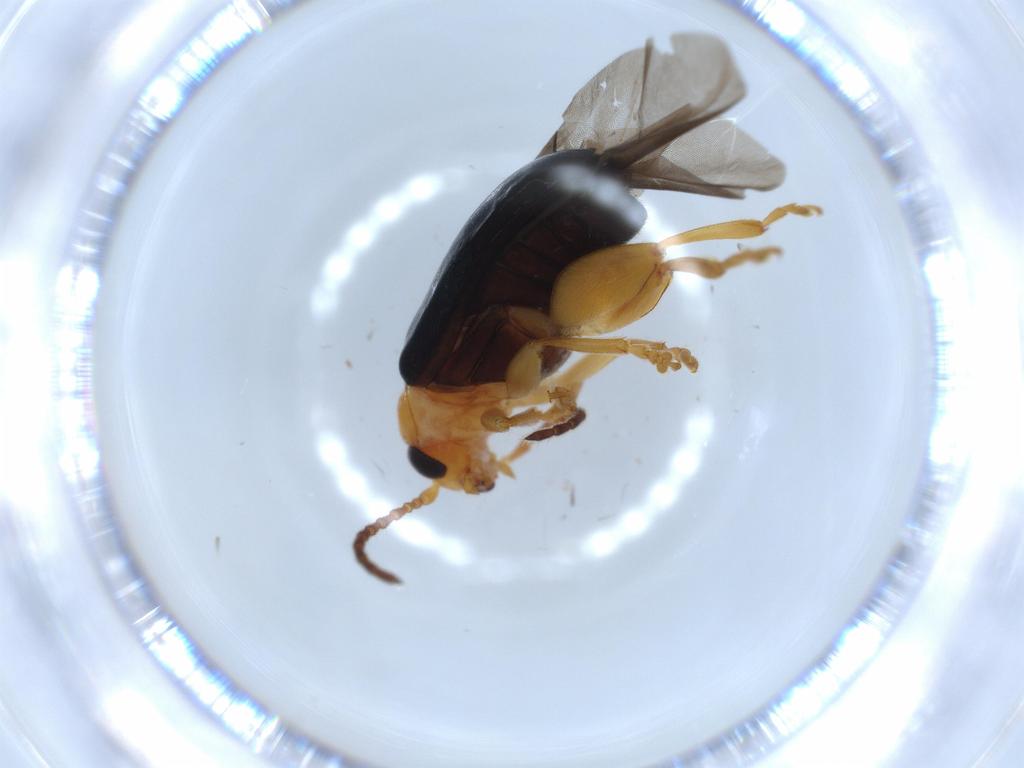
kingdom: Animalia
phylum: Arthropoda
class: Insecta
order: Coleoptera
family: Chrysomelidae
